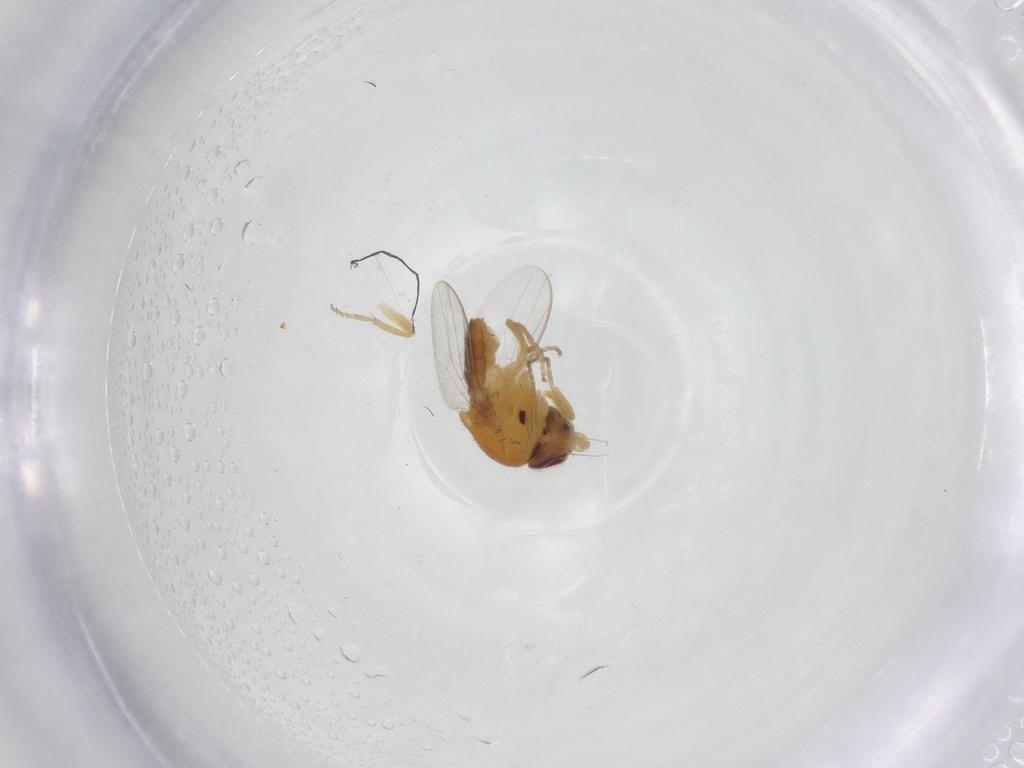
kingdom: Animalia
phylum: Arthropoda
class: Insecta
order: Diptera
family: Chloropidae
